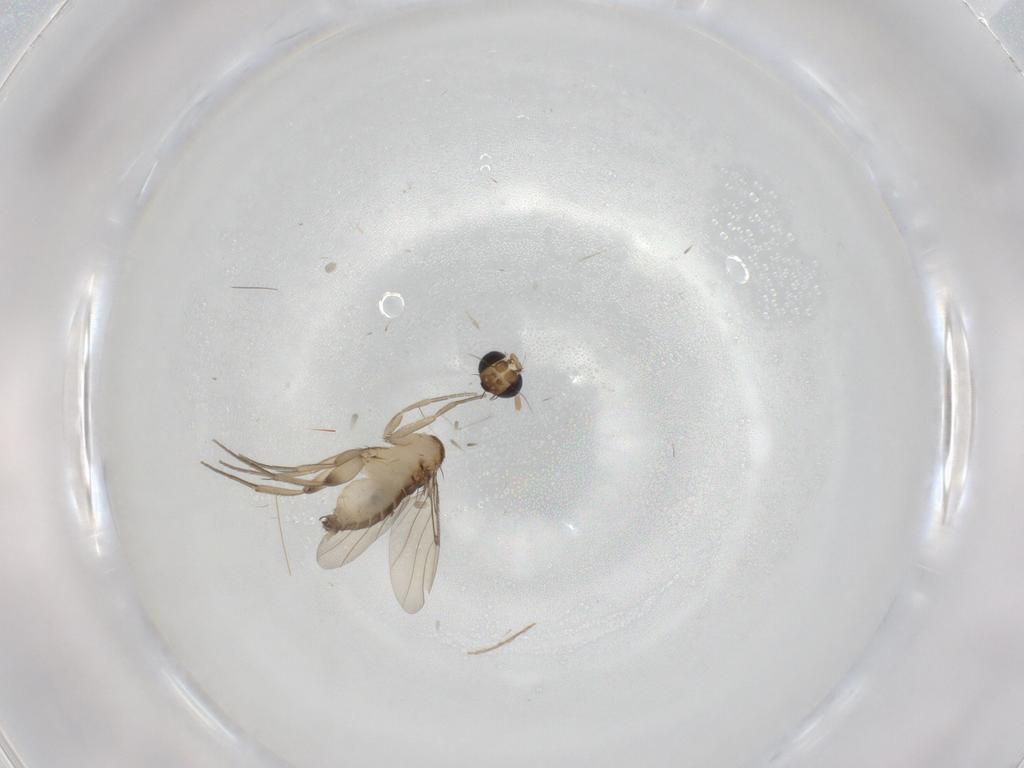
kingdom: Animalia
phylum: Arthropoda
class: Insecta
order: Diptera
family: Phoridae
